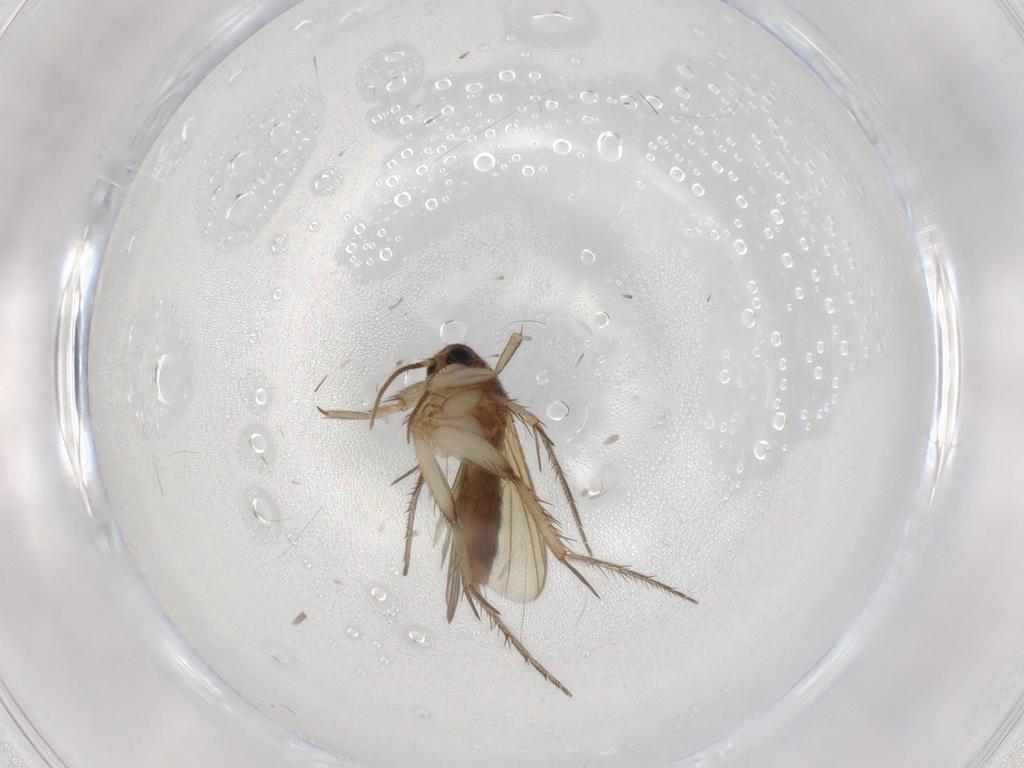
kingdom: Animalia
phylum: Arthropoda
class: Insecta
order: Diptera
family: Mycetophilidae
